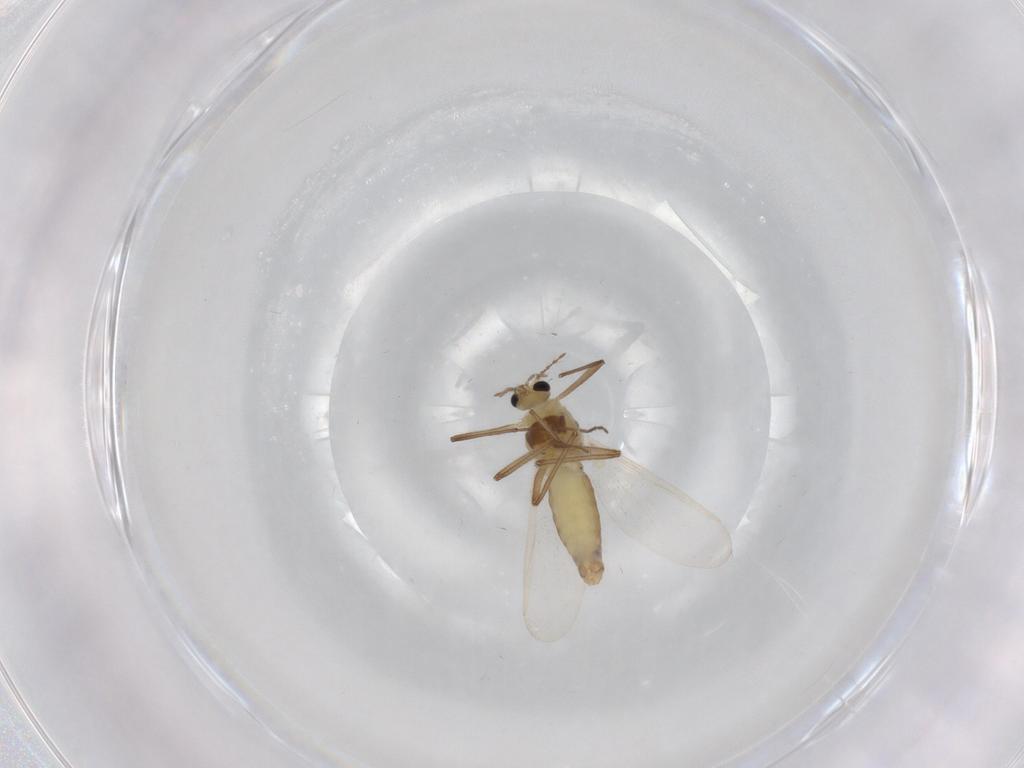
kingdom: Animalia
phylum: Arthropoda
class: Insecta
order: Diptera
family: Chironomidae
